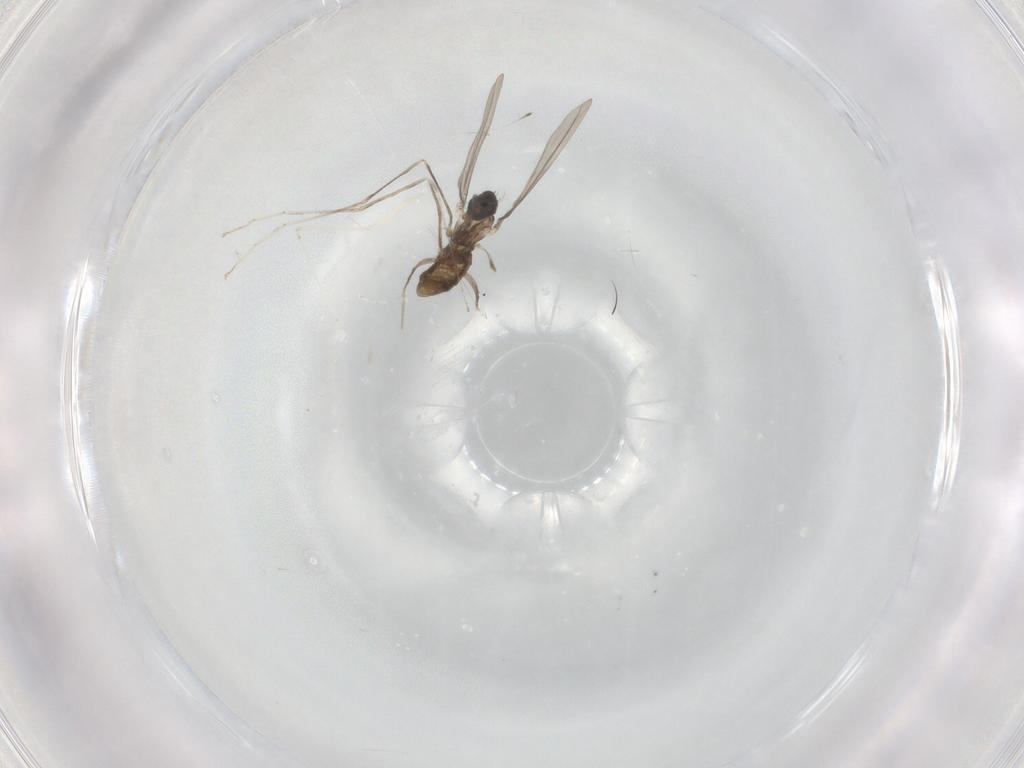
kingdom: Animalia
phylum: Arthropoda
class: Insecta
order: Diptera
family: Cecidomyiidae
